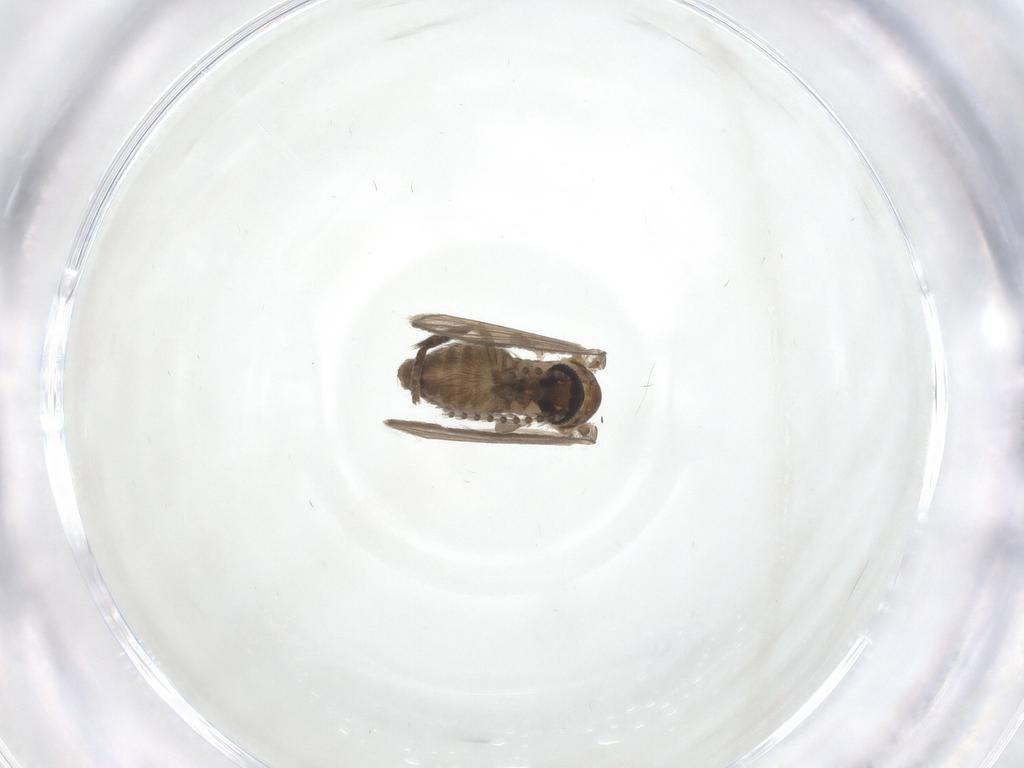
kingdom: Animalia
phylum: Arthropoda
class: Insecta
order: Diptera
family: Psychodidae
